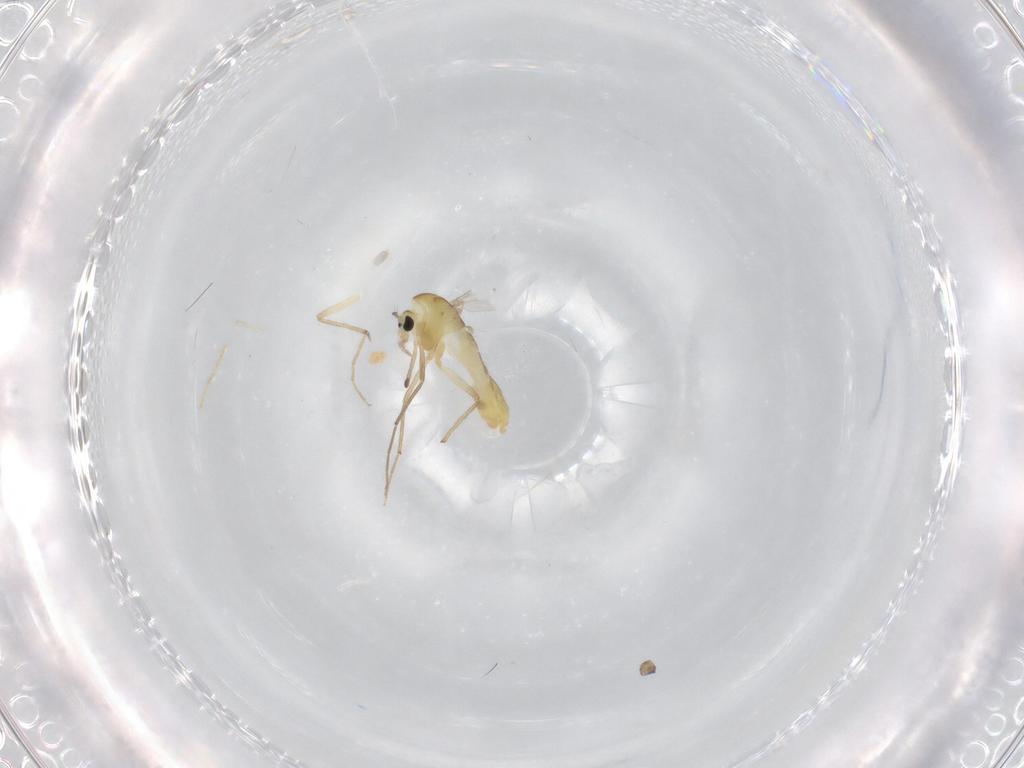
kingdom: Animalia
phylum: Arthropoda
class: Insecta
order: Diptera
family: Chironomidae
